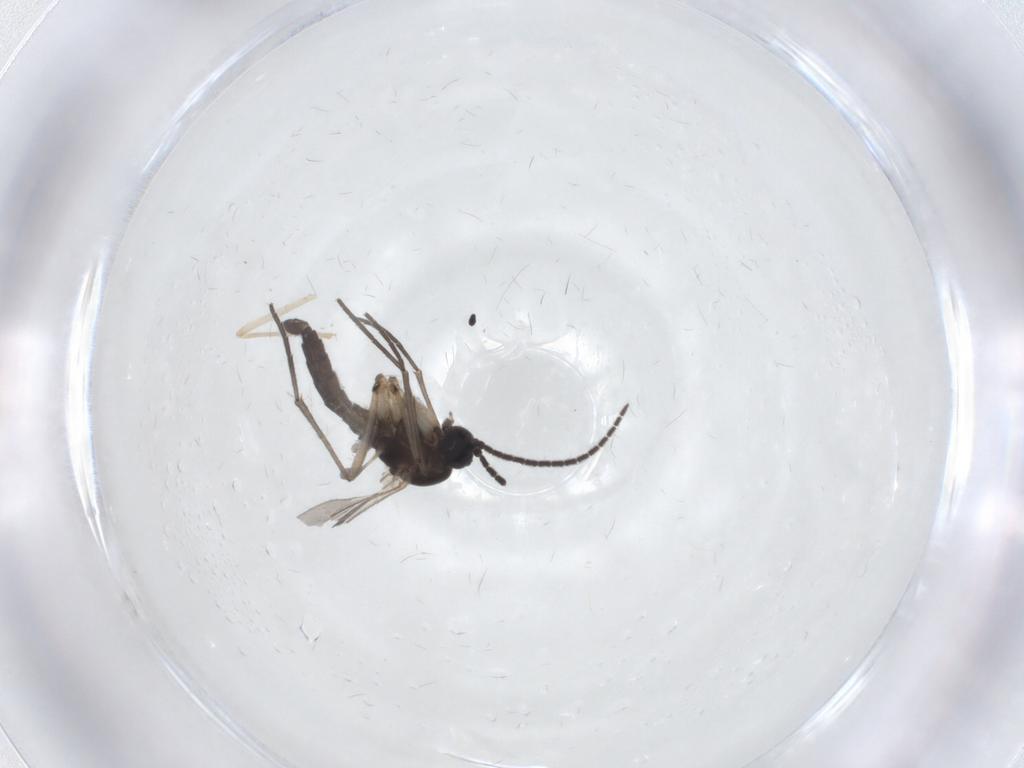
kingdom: Animalia
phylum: Arthropoda
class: Insecta
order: Diptera
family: Sciaridae
